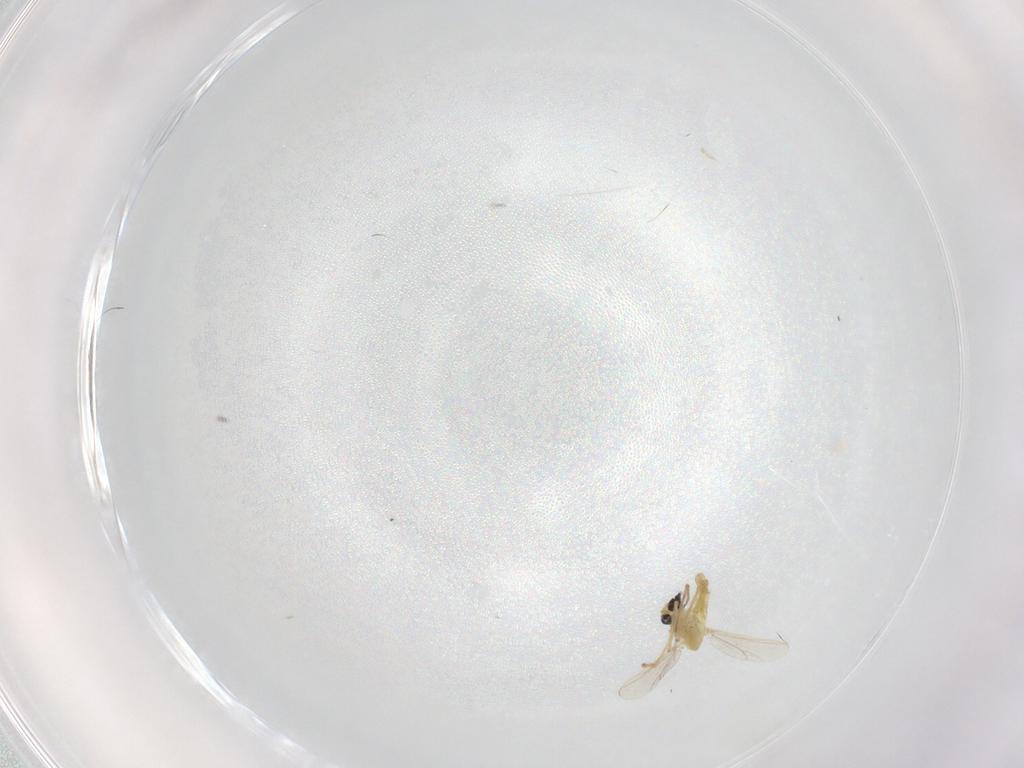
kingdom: Animalia
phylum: Arthropoda
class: Insecta
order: Diptera
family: Chironomidae
